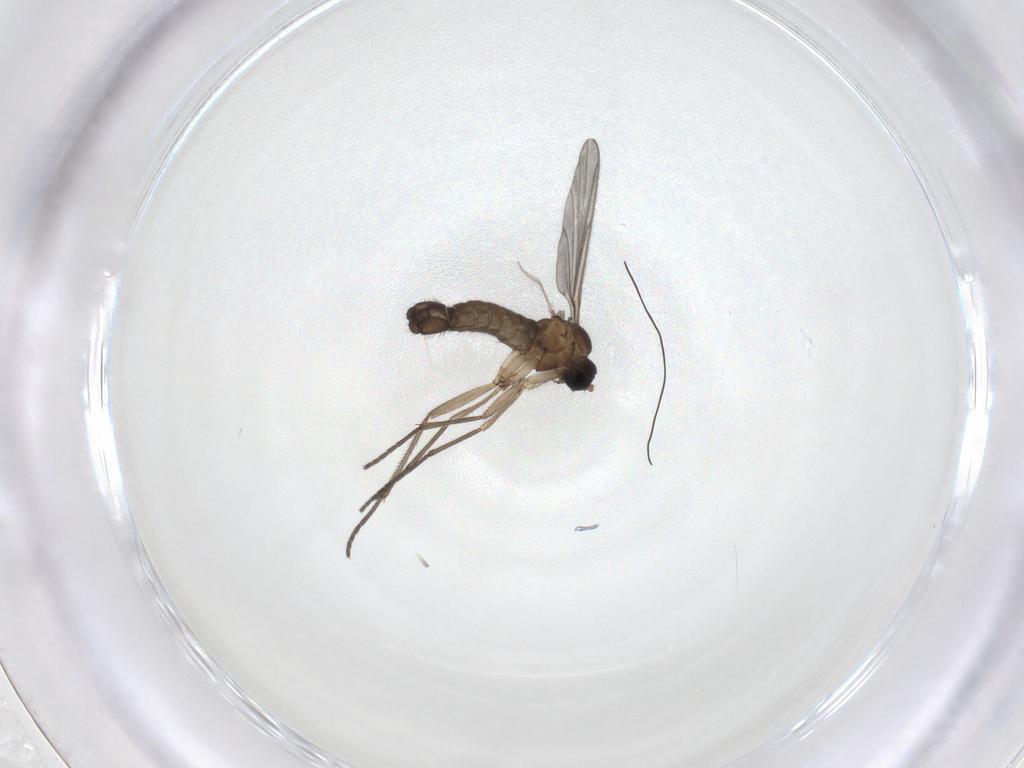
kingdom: Animalia
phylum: Arthropoda
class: Insecta
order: Diptera
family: Sciaridae
